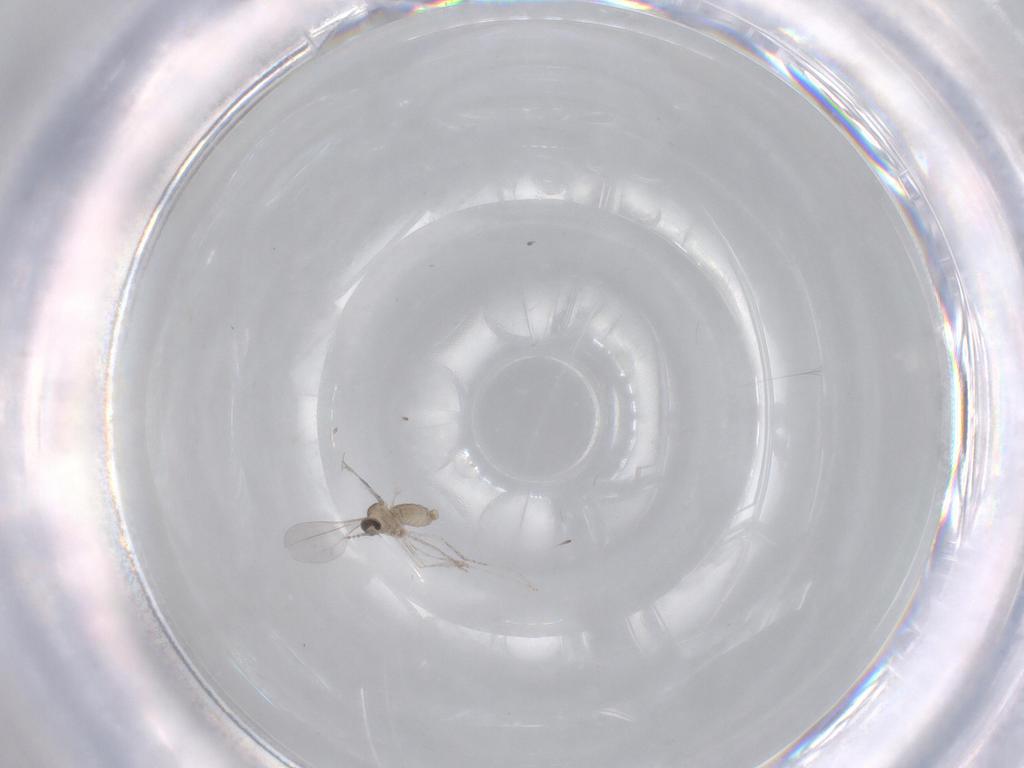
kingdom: Animalia
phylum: Arthropoda
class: Insecta
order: Diptera
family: Cecidomyiidae
